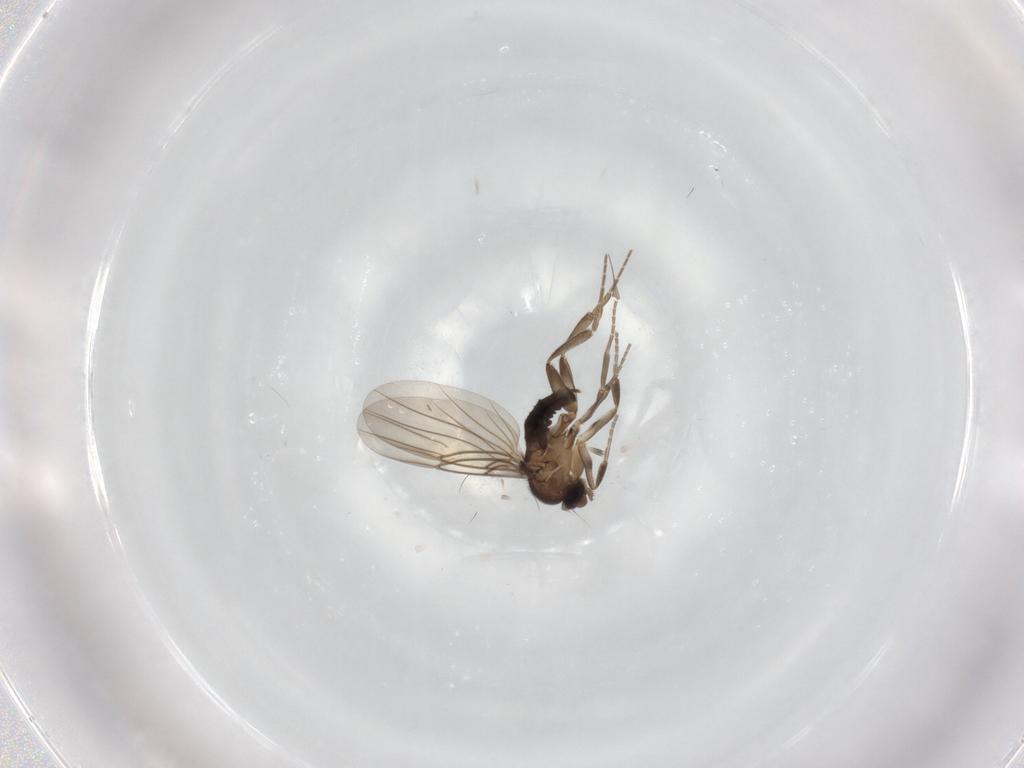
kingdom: Animalia
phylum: Arthropoda
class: Insecta
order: Diptera
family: Phoridae
